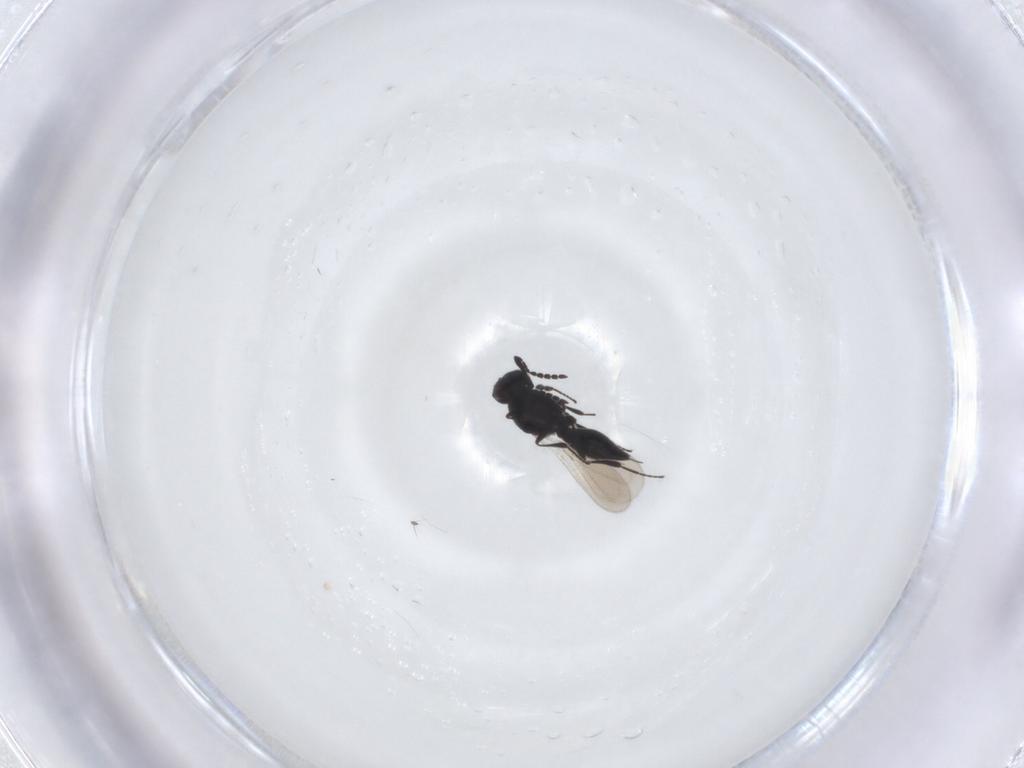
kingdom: Animalia
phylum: Arthropoda
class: Insecta
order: Hymenoptera
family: Platygastridae
